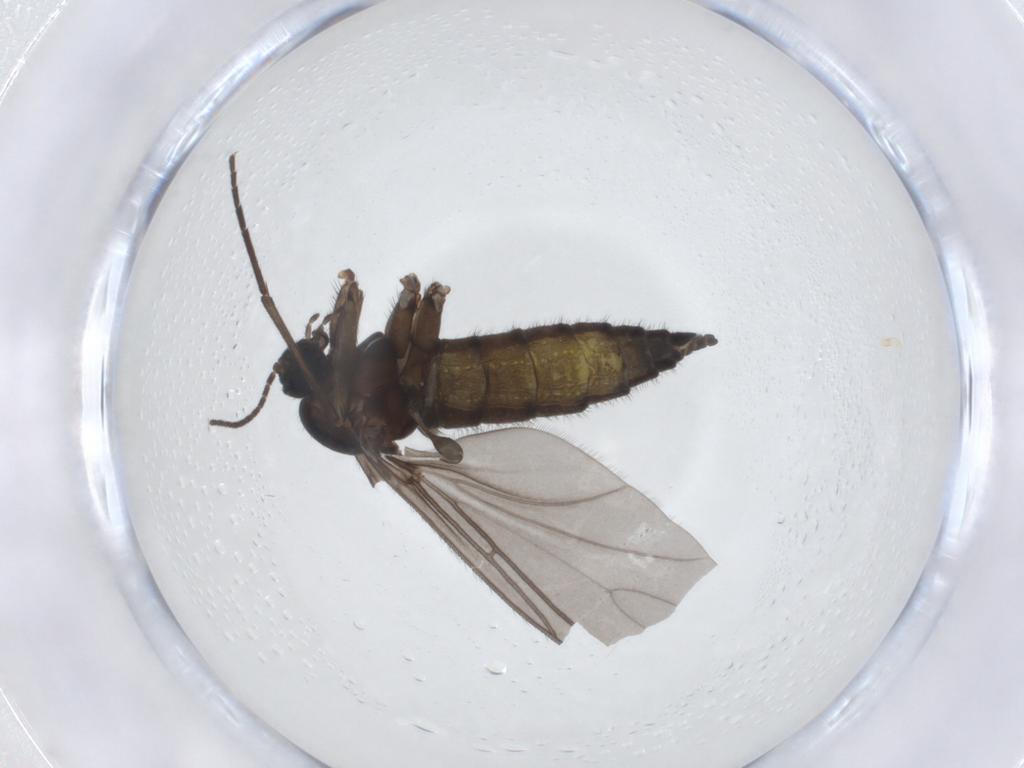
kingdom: Animalia
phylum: Arthropoda
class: Insecta
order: Diptera
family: Sciaridae
